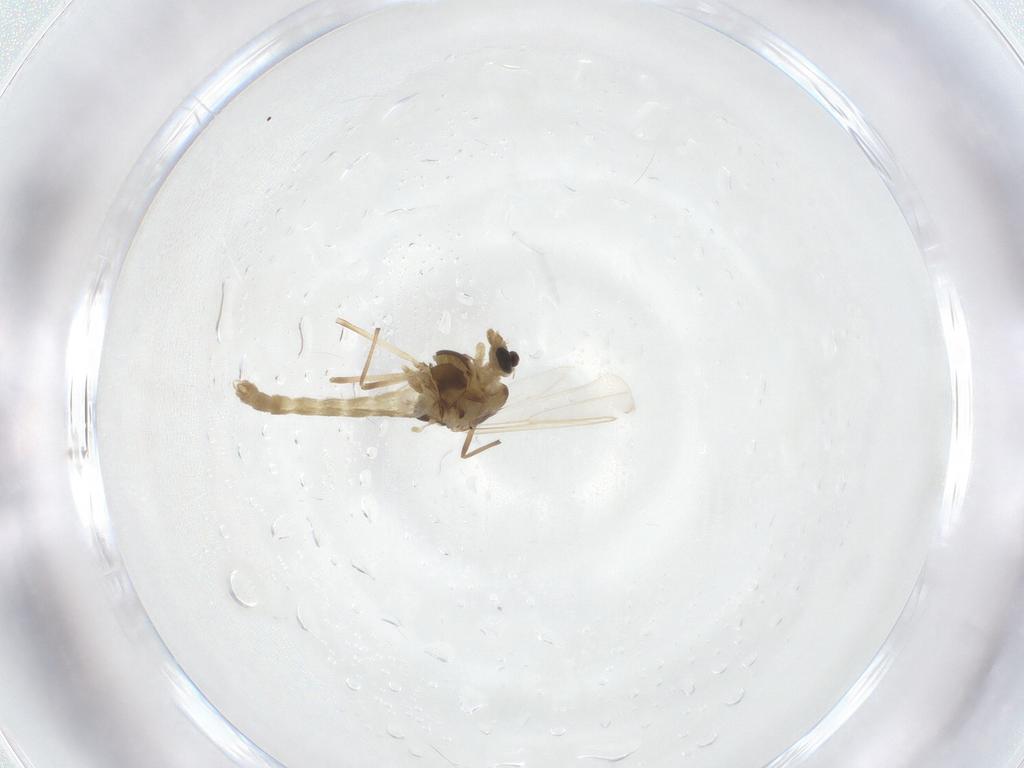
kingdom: Animalia
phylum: Arthropoda
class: Insecta
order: Diptera
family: Chironomidae
